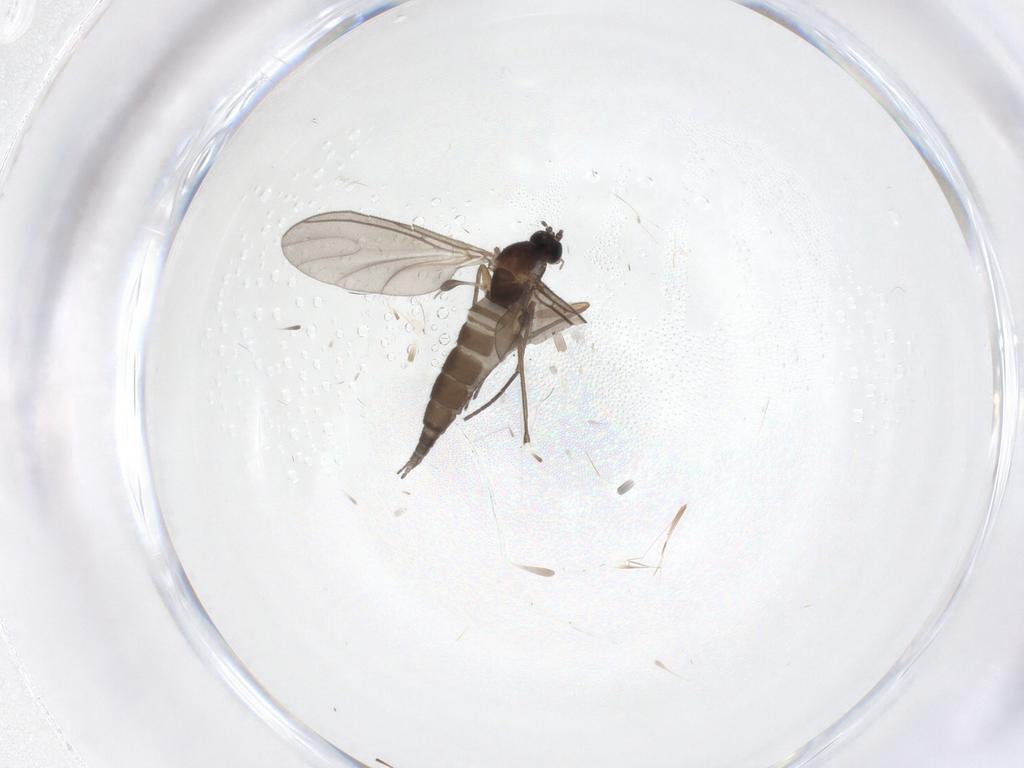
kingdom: Animalia
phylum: Arthropoda
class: Insecta
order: Diptera
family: Sciaridae
